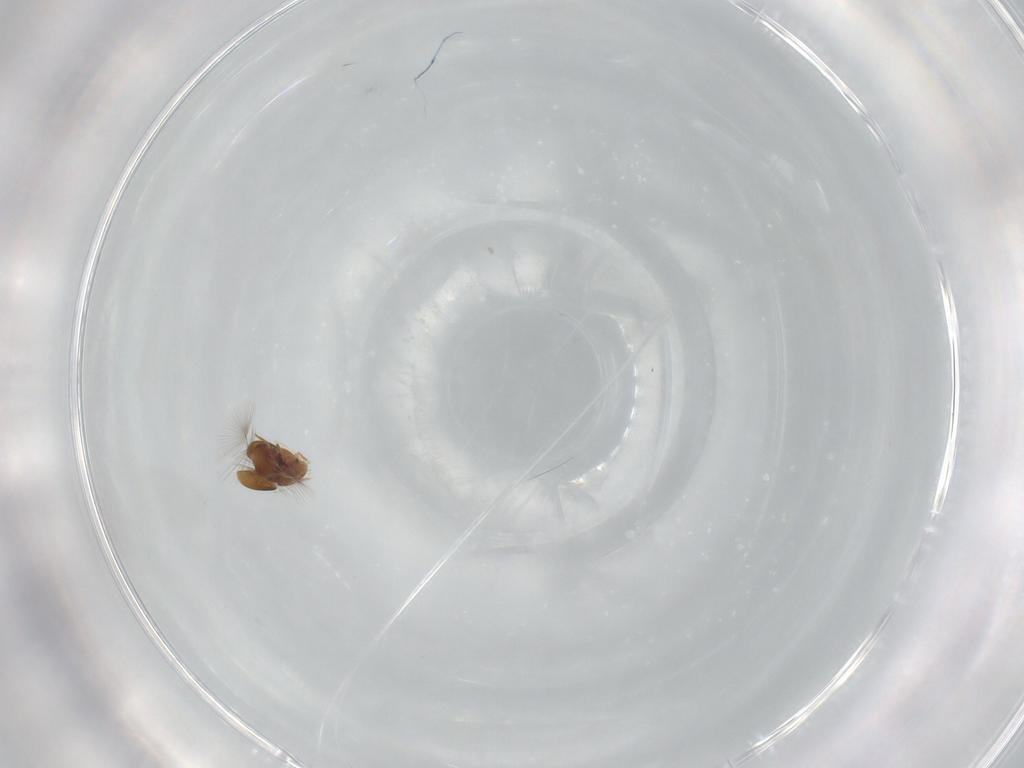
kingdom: Animalia
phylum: Arthropoda
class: Insecta
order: Coleoptera
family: Ptiliidae
